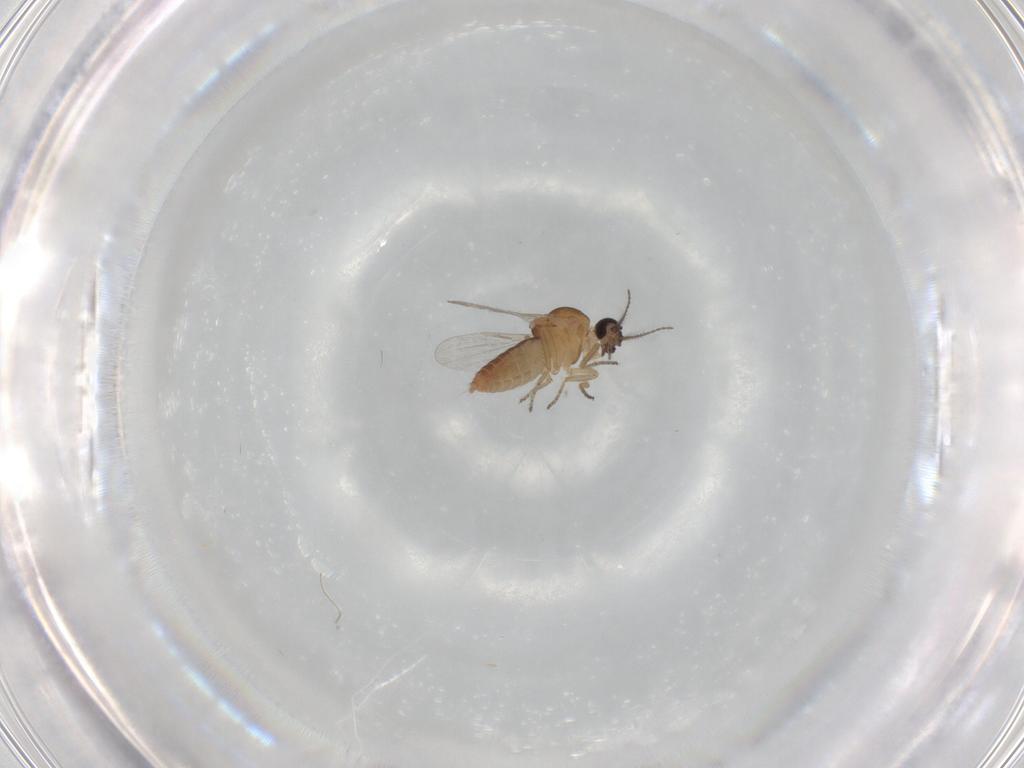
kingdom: Animalia
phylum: Arthropoda
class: Insecta
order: Diptera
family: Ceratopogonidae
